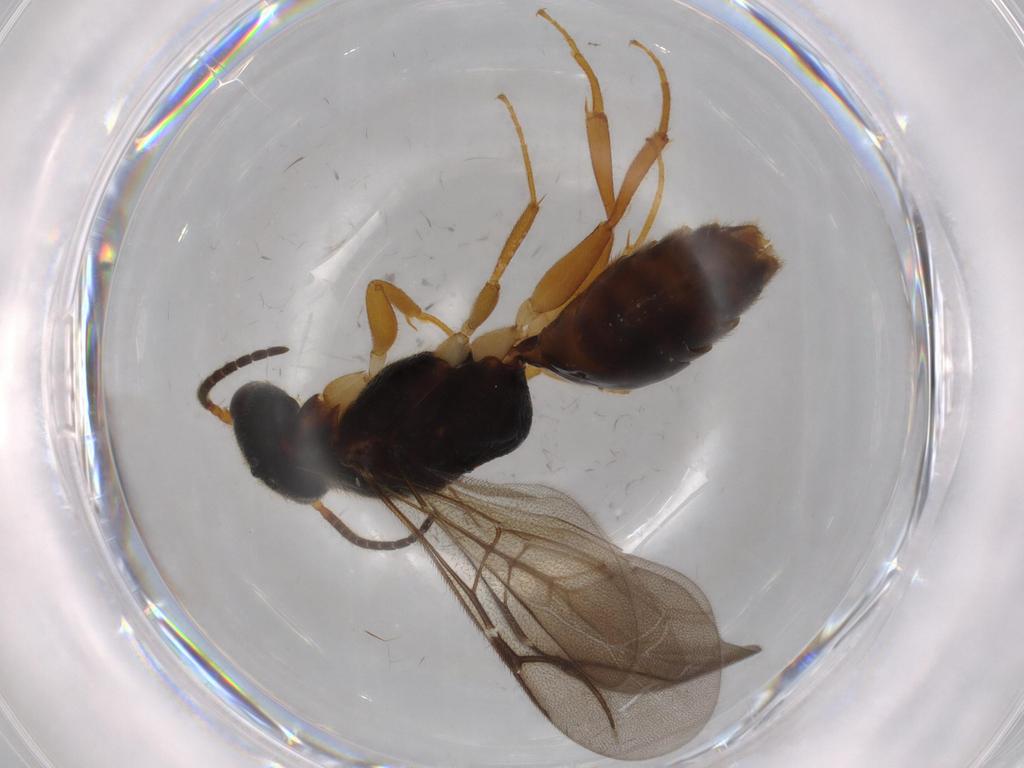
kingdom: Animalia
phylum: Arthropoda
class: Insecta
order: Hymenoptera
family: Bethylidae
